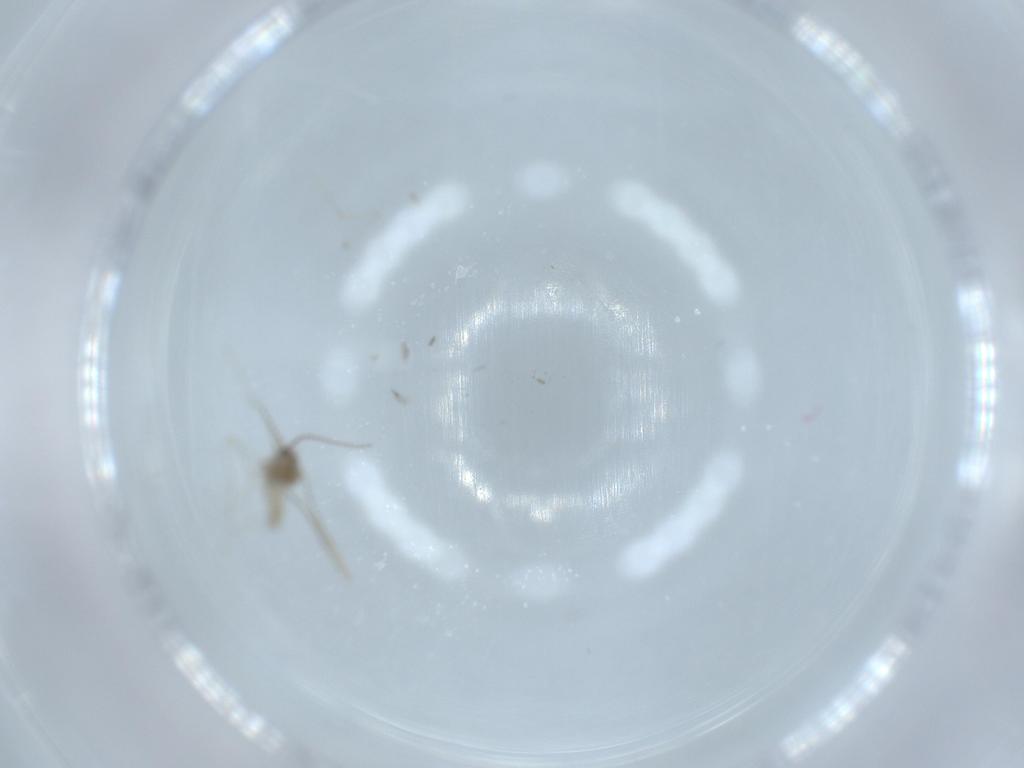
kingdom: Animalia
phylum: Arthropoda
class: Insecta
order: Diptera
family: Cecidomyiidae
